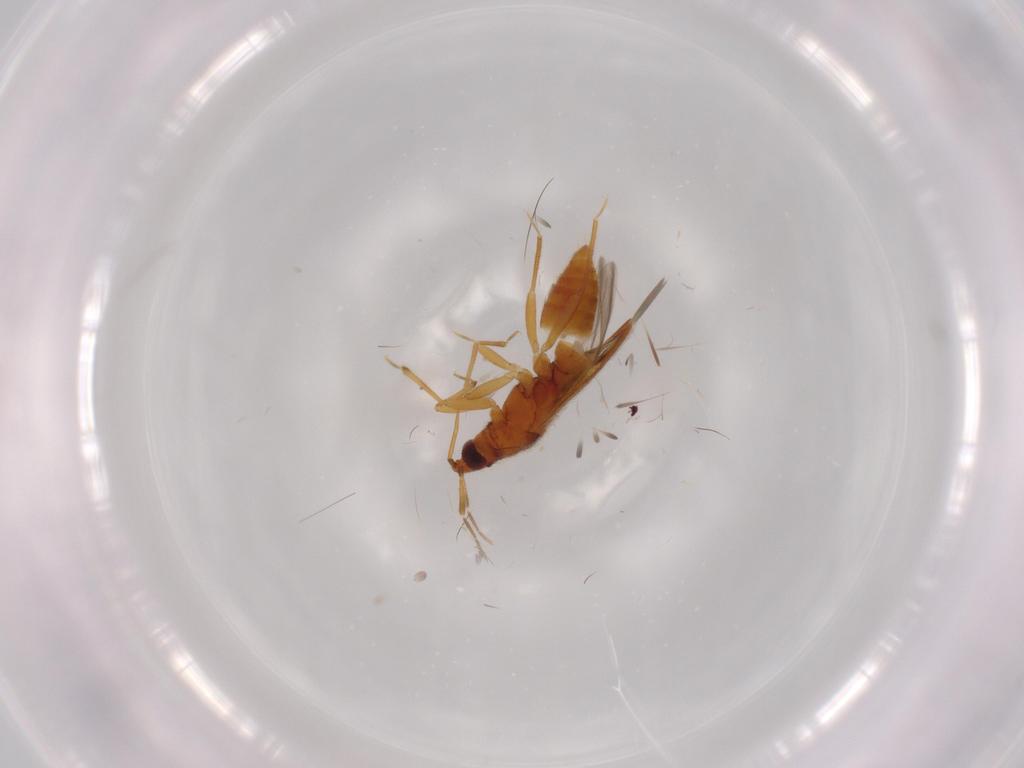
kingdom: Animalia
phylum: Arthropoda
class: Insecta
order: Hemiptera
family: Anthocoridae
